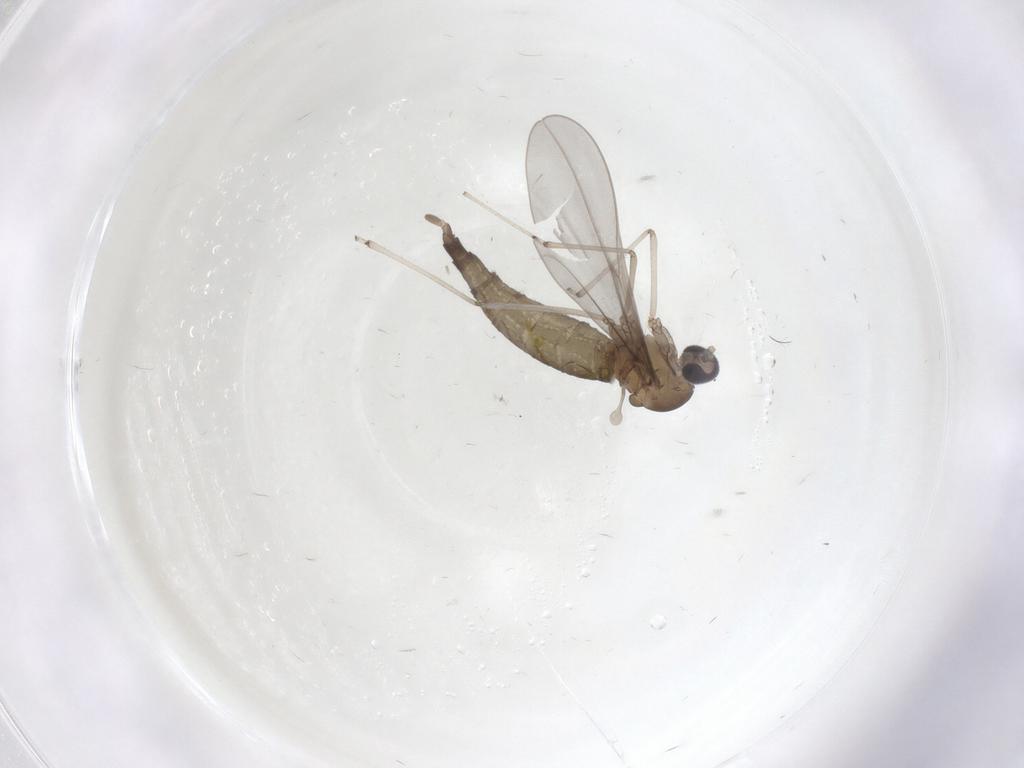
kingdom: Animalia
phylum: Arthropoda
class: Insecta
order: Diptera
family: Cecidomyiidae
